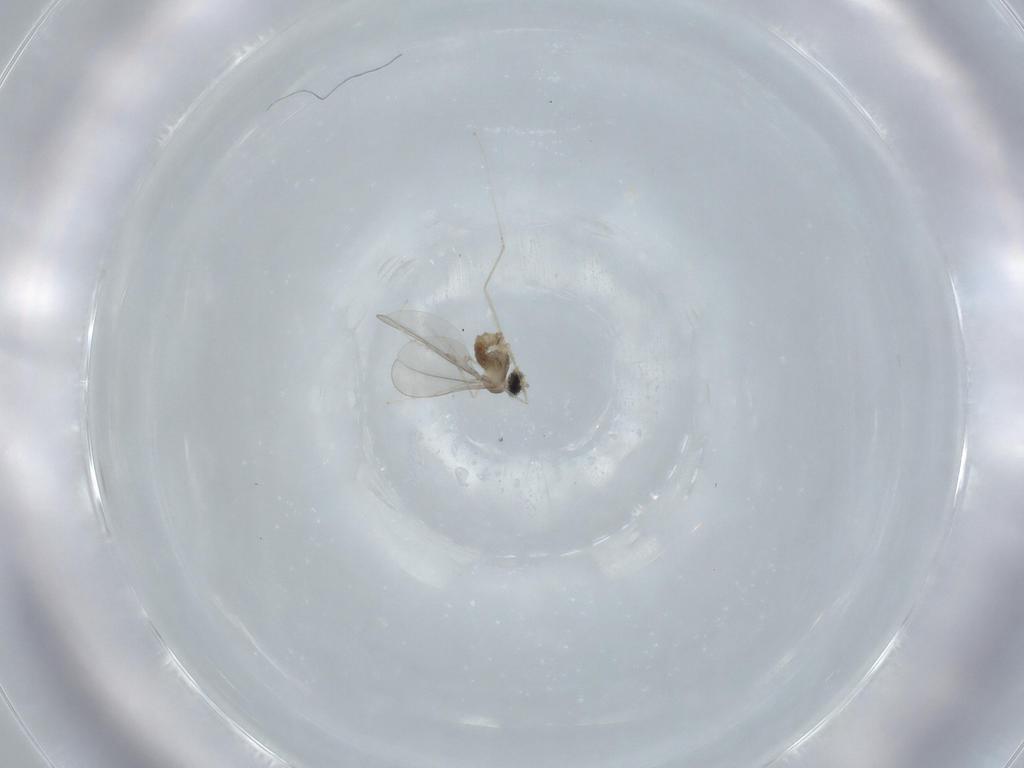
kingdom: Animalia
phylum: Arthropoda
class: Insecta
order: Diptera
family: Cecidomyiidae
